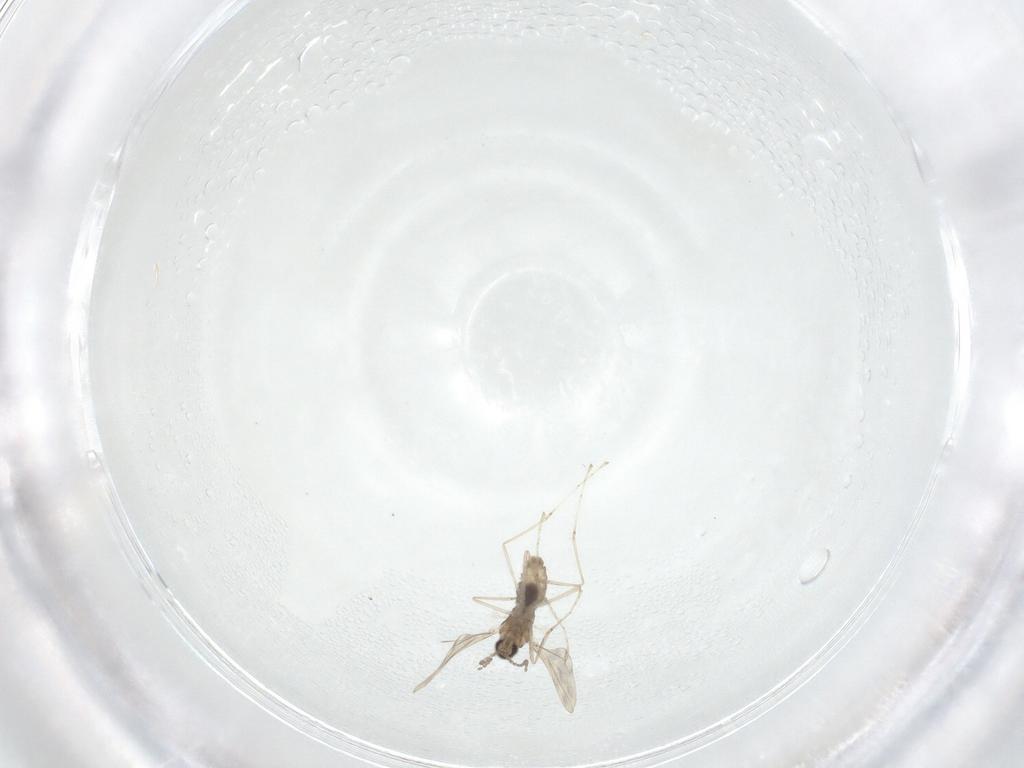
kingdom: Animalia
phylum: Arthropoda
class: Insecta
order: Diptera
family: Cecidomyiidae
